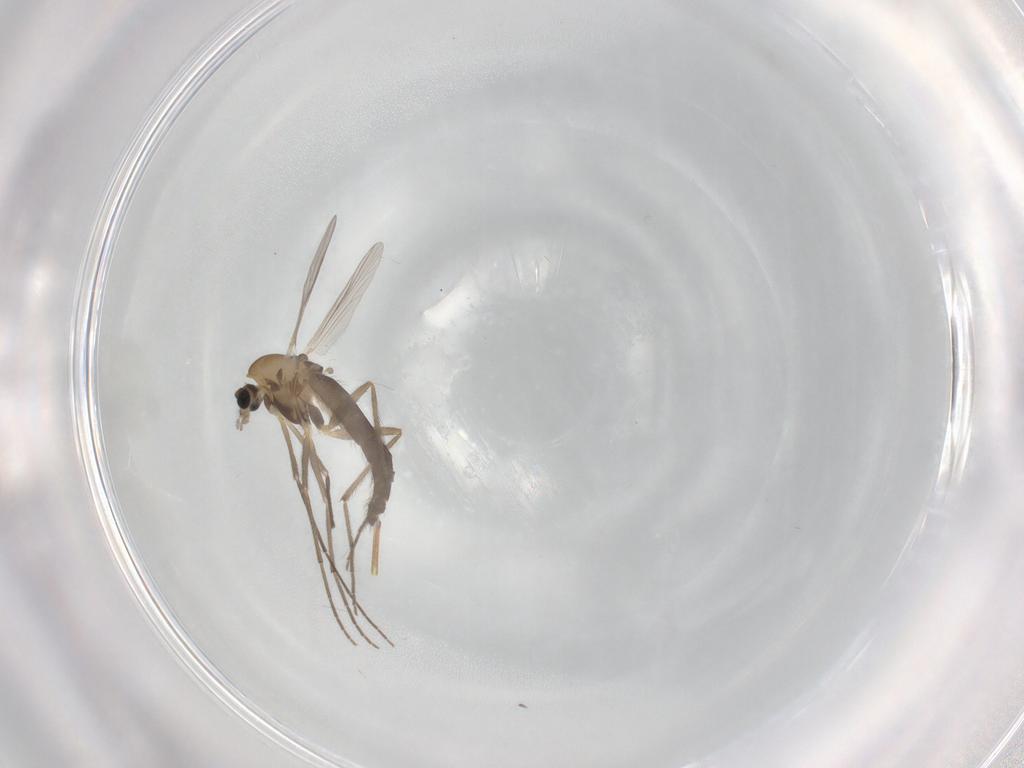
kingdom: Animalia
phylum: Arthropoda
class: Insecta
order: Diptera
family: Chironomidae
